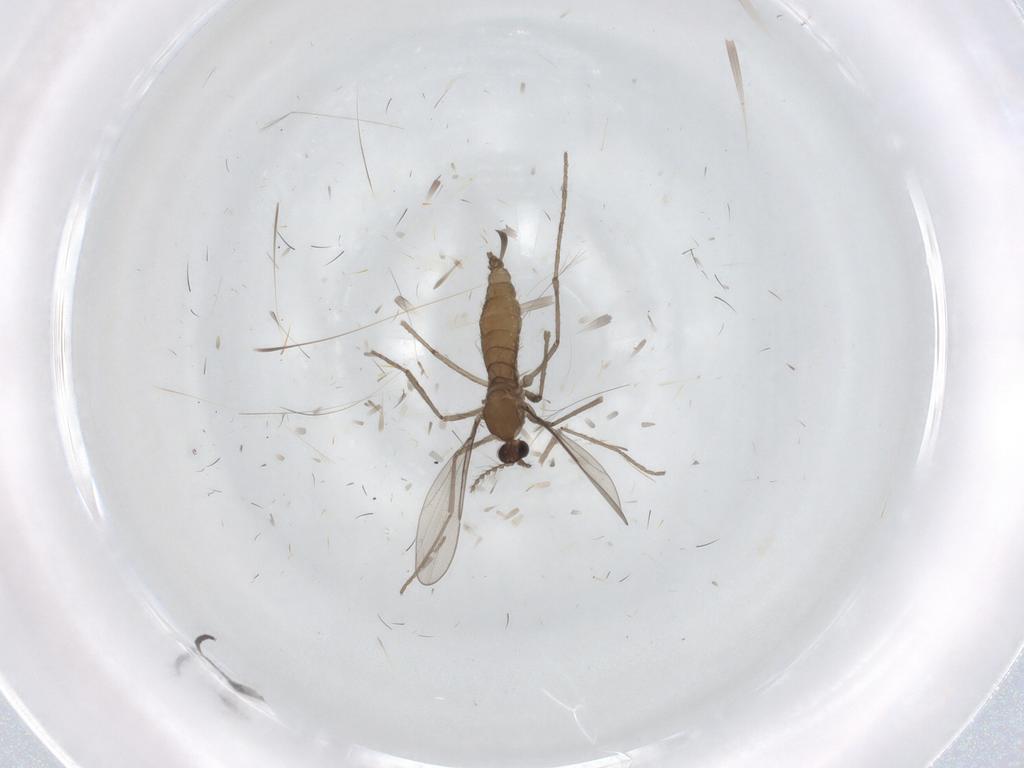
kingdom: Animalia
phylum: Arthropoda
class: Insecta
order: Diptera
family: Cecidomyiidae
